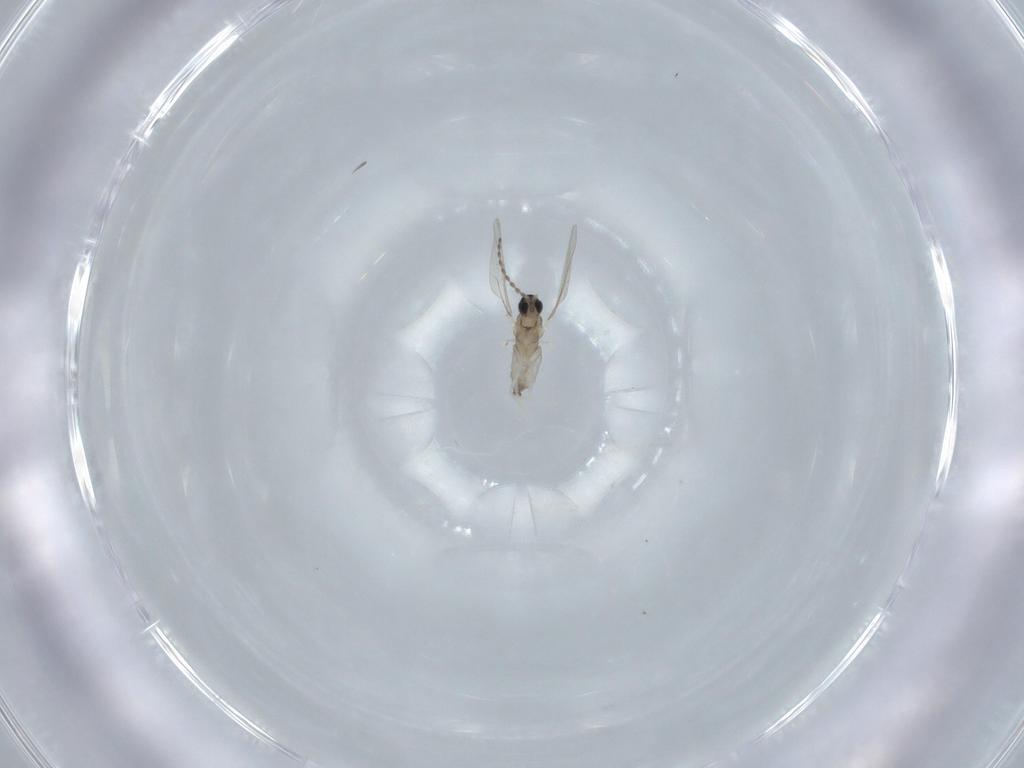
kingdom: Animalia
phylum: Arthropoda
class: Insecta
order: Diptera
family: Cecidomyiidae
